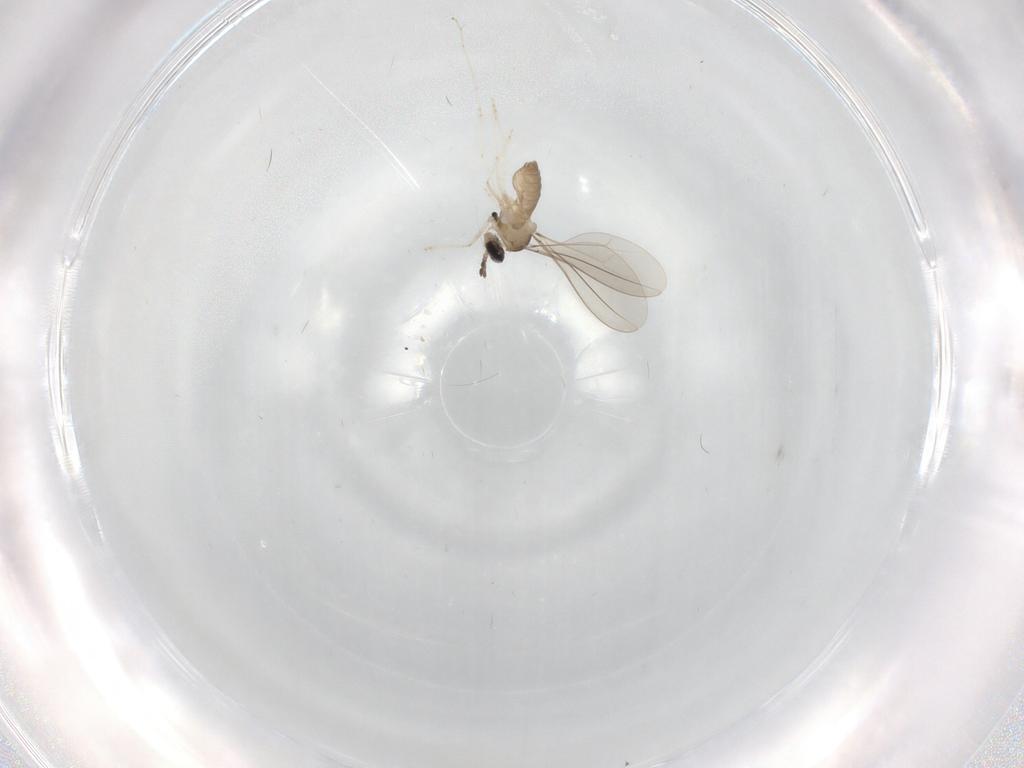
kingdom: Animalia
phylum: Arthropoda
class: Insecta
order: Diptera
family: Cecidomyiidae
